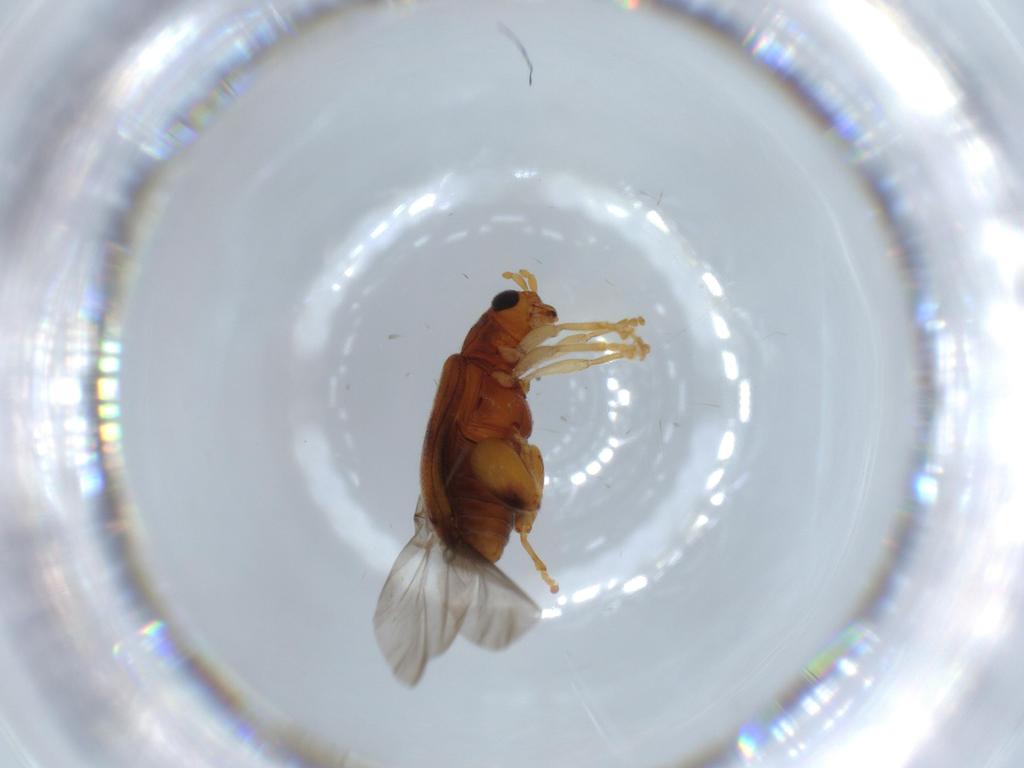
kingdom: Animalia
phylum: Arthropoda
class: Insecta
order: Coleoptera
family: Chrysomelidae
